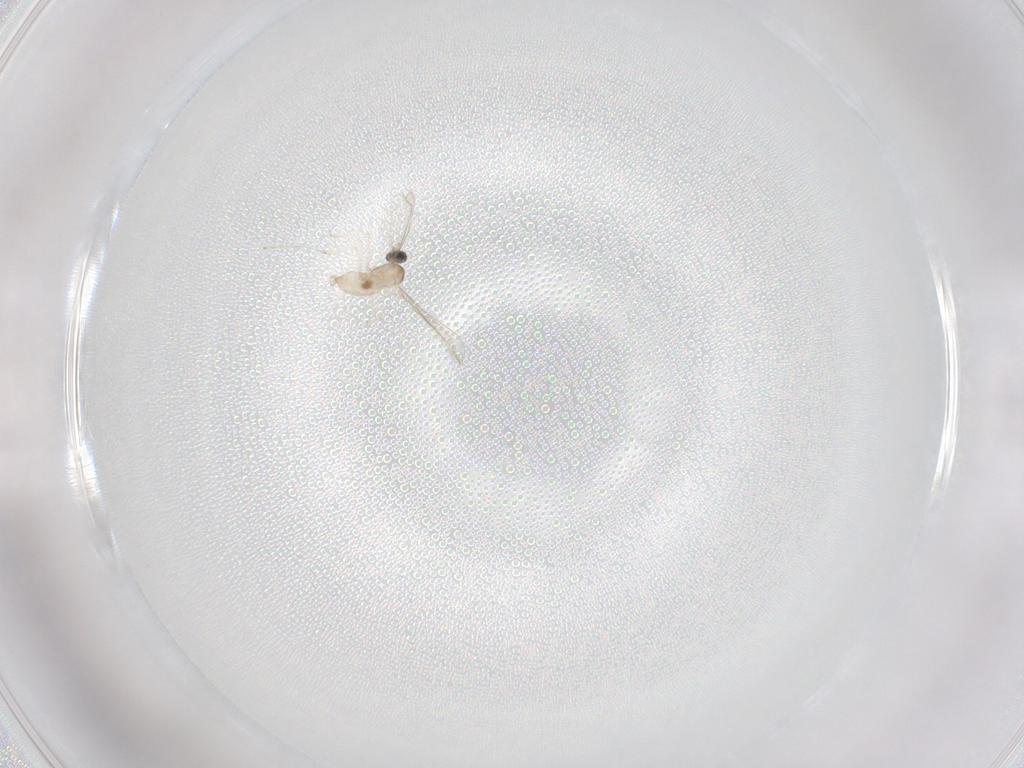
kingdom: Animalia
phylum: Arthropoda
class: Insecta
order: Diptera
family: Cecidomyiidae
